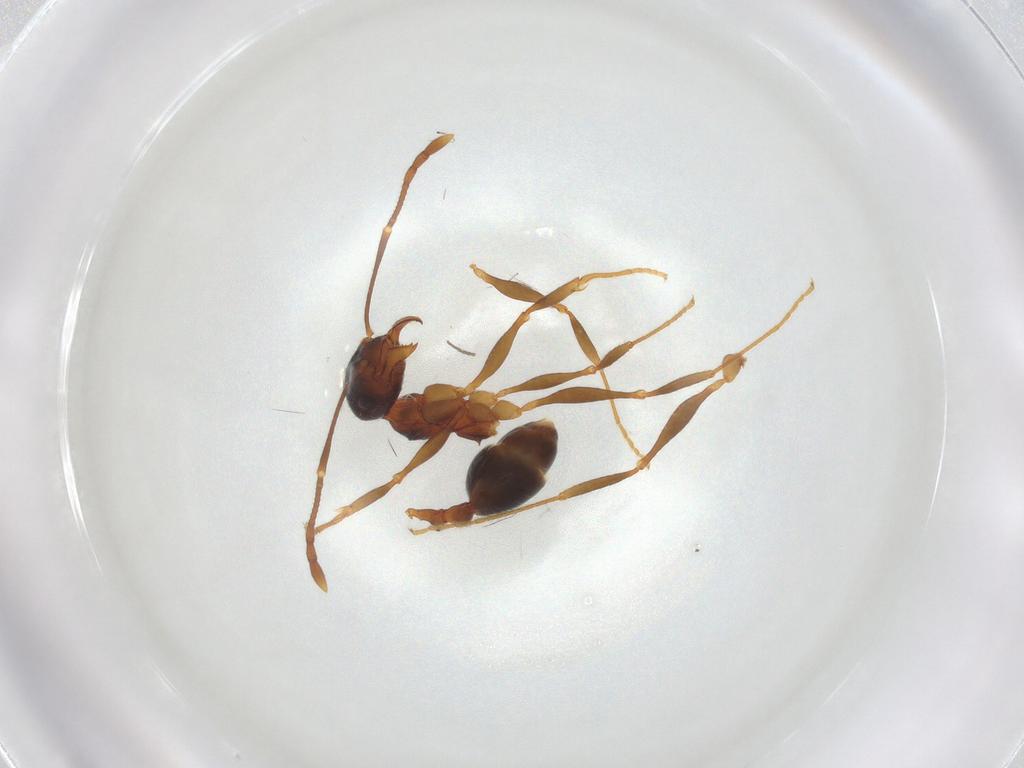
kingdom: Animalia
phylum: Arthropoda
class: Insecta
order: Hymenoptera
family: Formicidae
